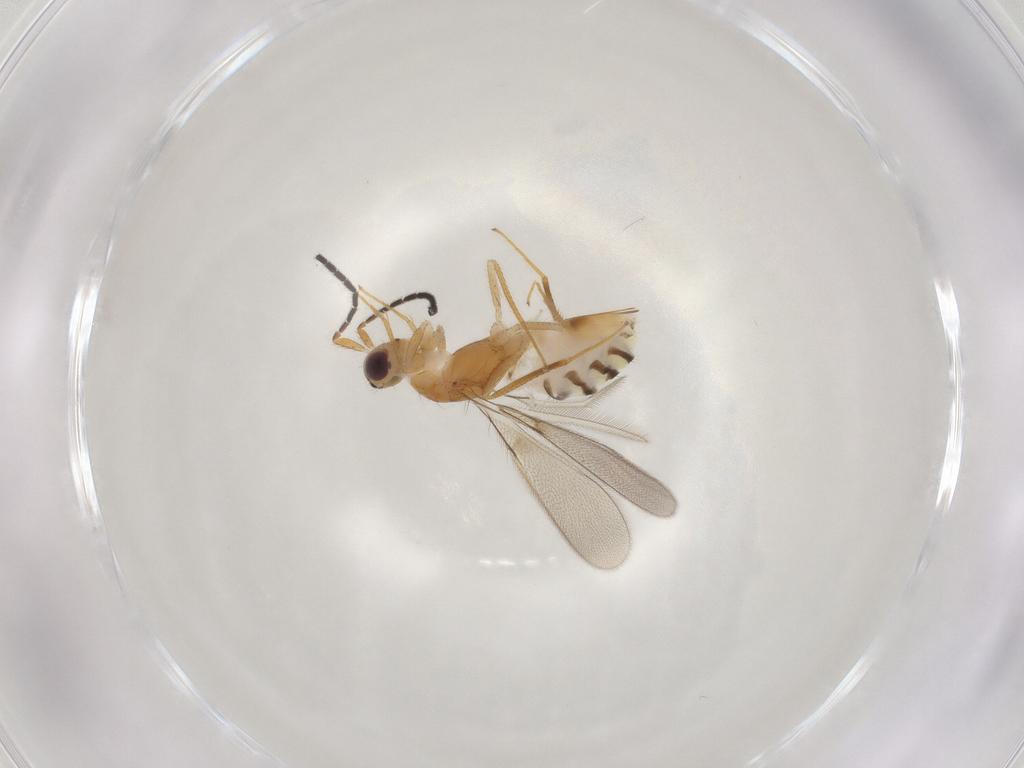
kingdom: Animalia
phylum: Arthropoda
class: Insecta
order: Hymenoptera
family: Mymaridae
